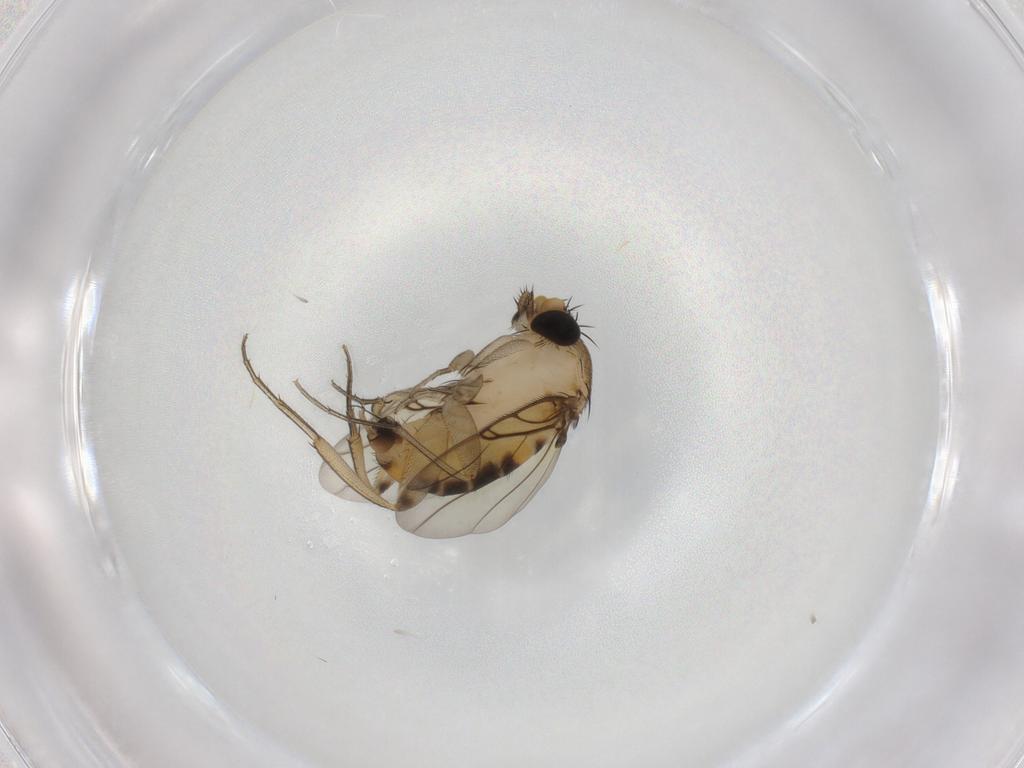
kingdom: Animalia
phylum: Arthropoda
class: Insecta
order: Diptera
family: Phoridae
